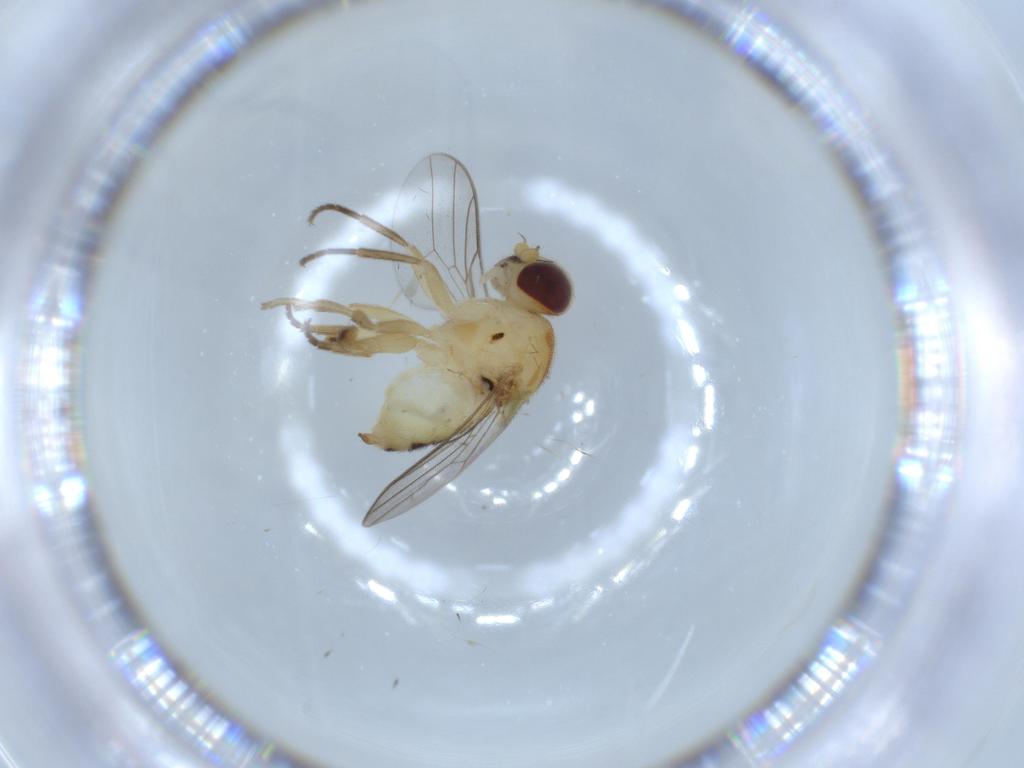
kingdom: Animalia
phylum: Arthropoda
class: Insecta
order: Diptera
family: Chloropidae
